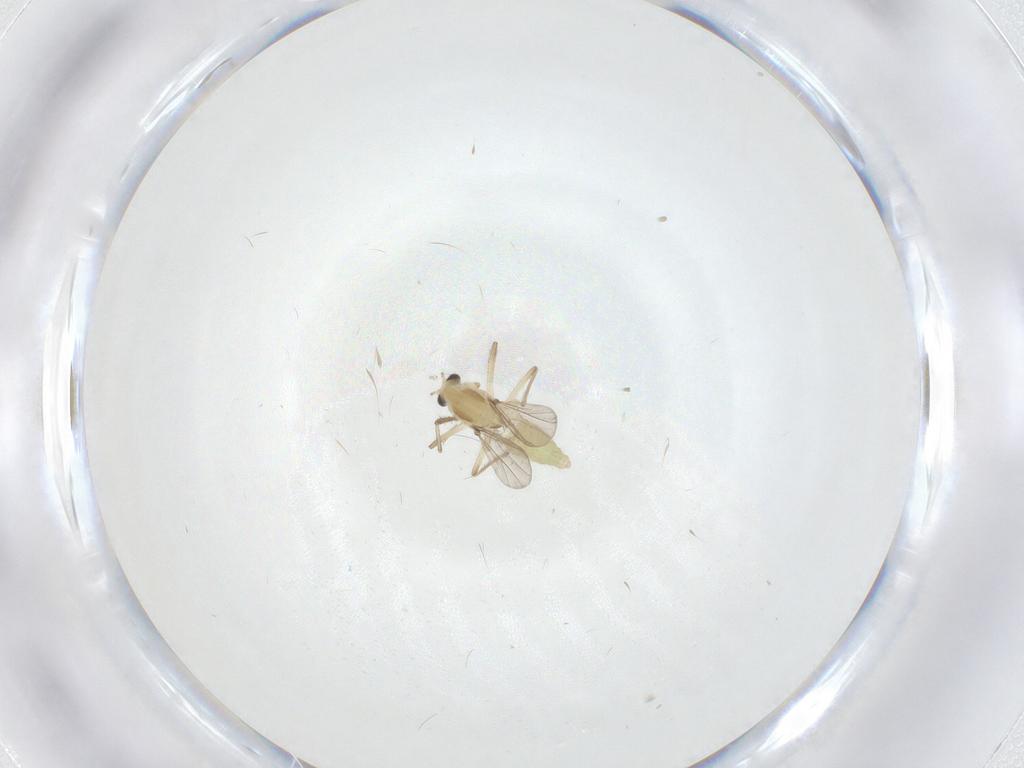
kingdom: Animalia
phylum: Arthropoda
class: Insecta
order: Diptera
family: Chironomidae
